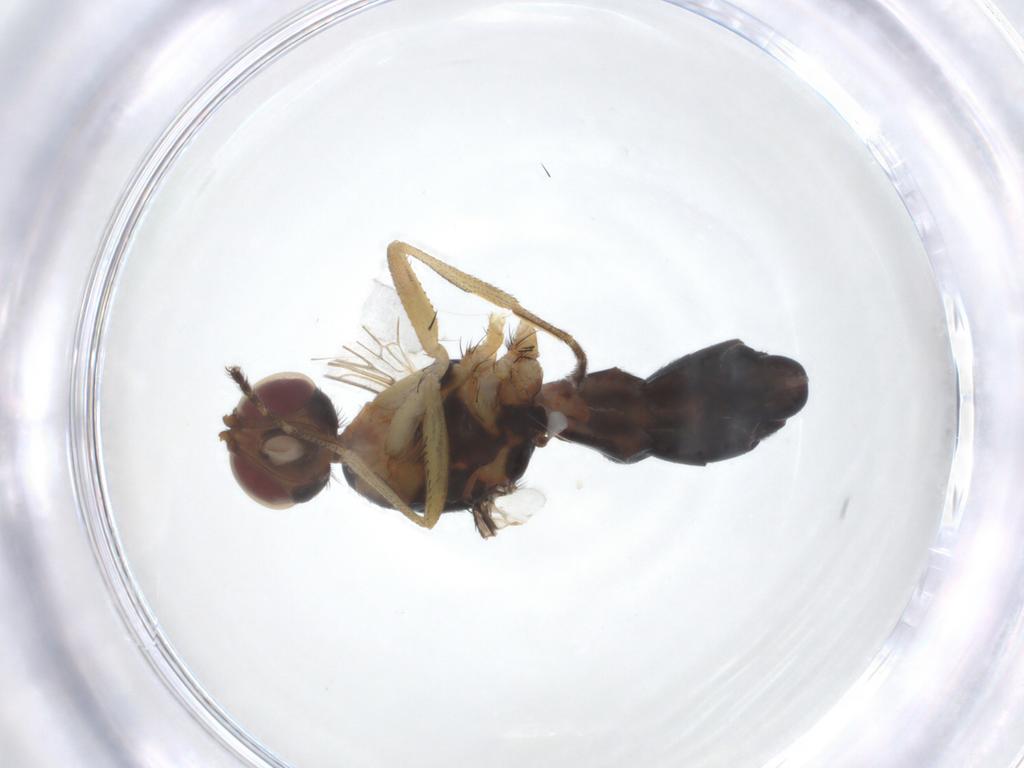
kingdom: Animalia
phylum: Arthropoda
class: Insecta
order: Diptera
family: Sepsidae
